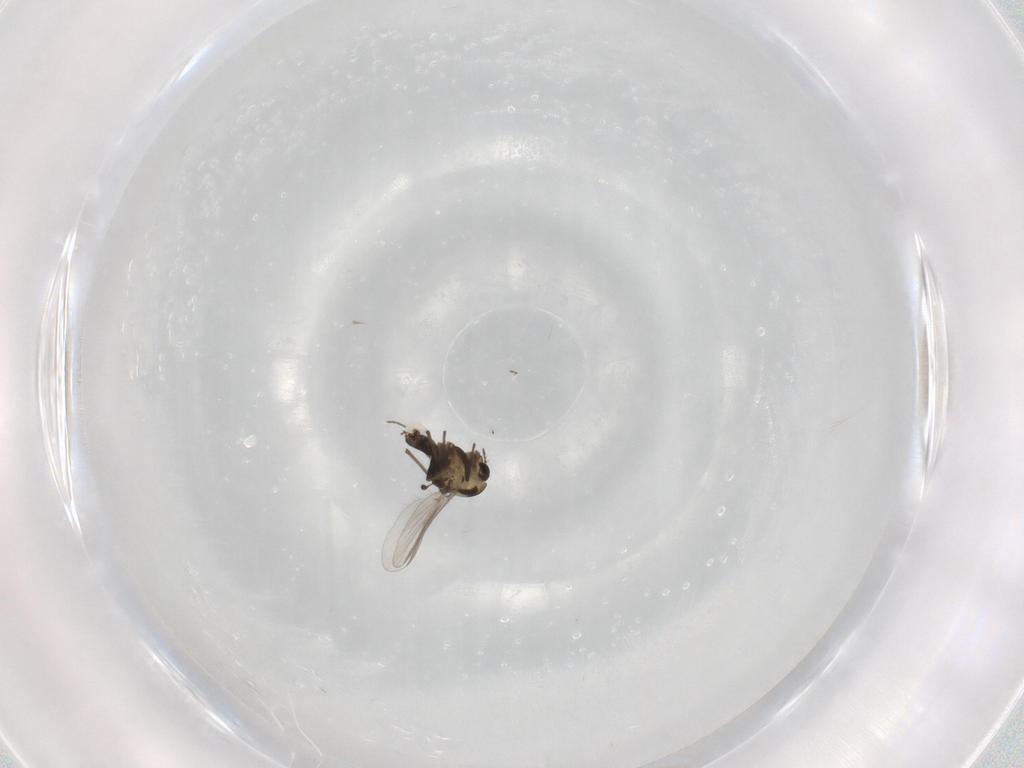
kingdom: Animalia
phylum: Arthropoda
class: Insecta
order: Diptera
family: Chironomidae
